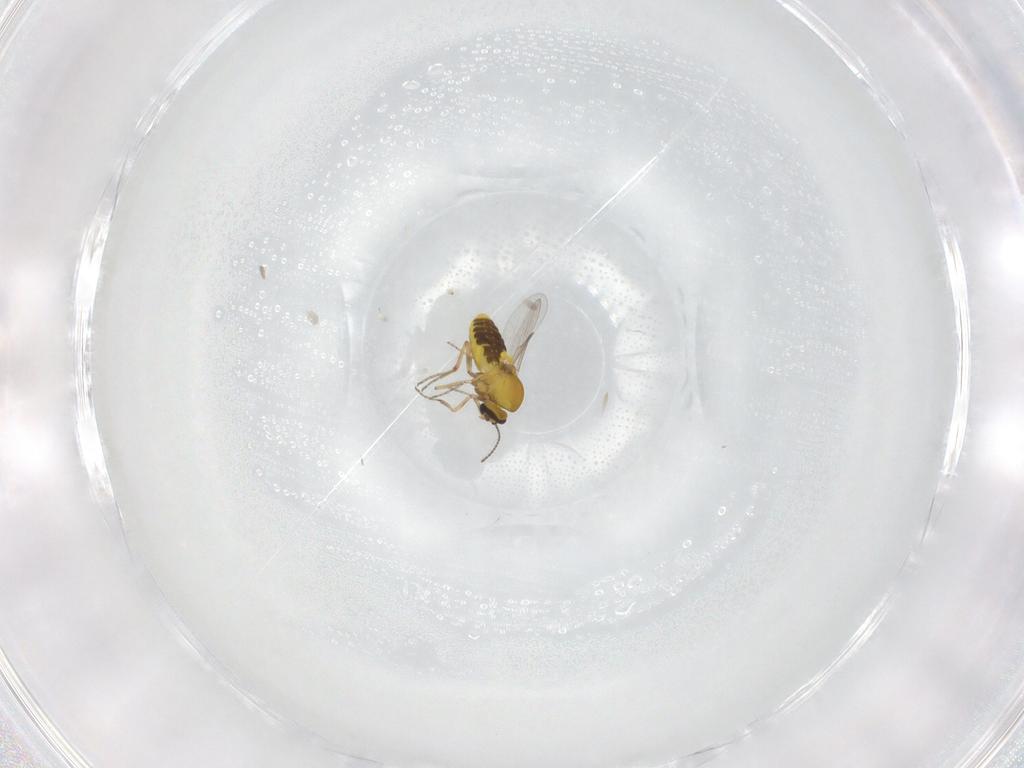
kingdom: Animalia
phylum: Arthropoda
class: Insecta
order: Diptera
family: Ceratopogonidae
